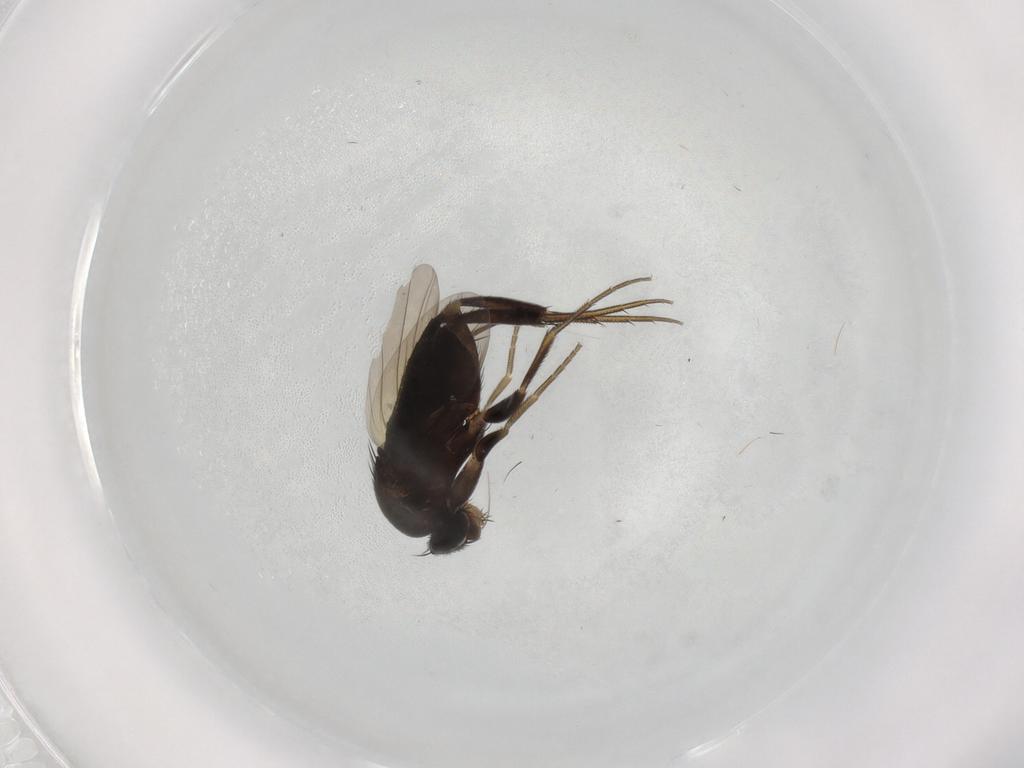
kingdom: Animalia
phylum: Arthropoda
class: Insecta
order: Diptera
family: Phoridae
